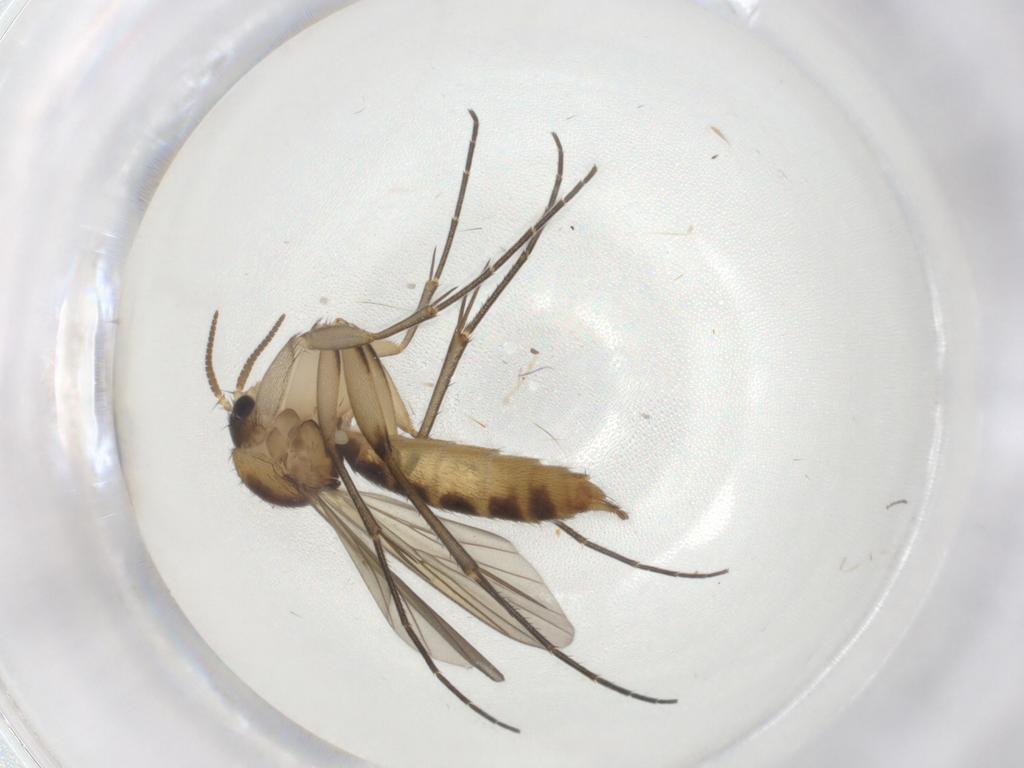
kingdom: Animalia
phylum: Arthropoda
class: Insecta
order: Diptera
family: Mycetophilidae
